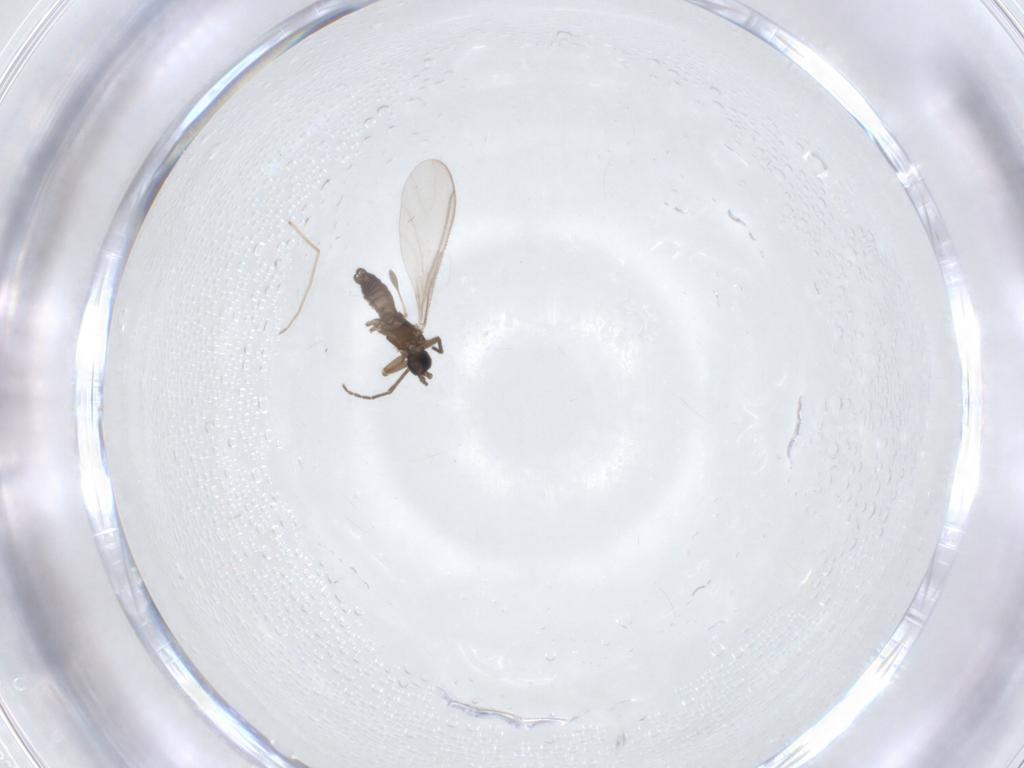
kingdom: Animalia
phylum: Arthropoda
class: Insecta
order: Diptera
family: Sciaridae
